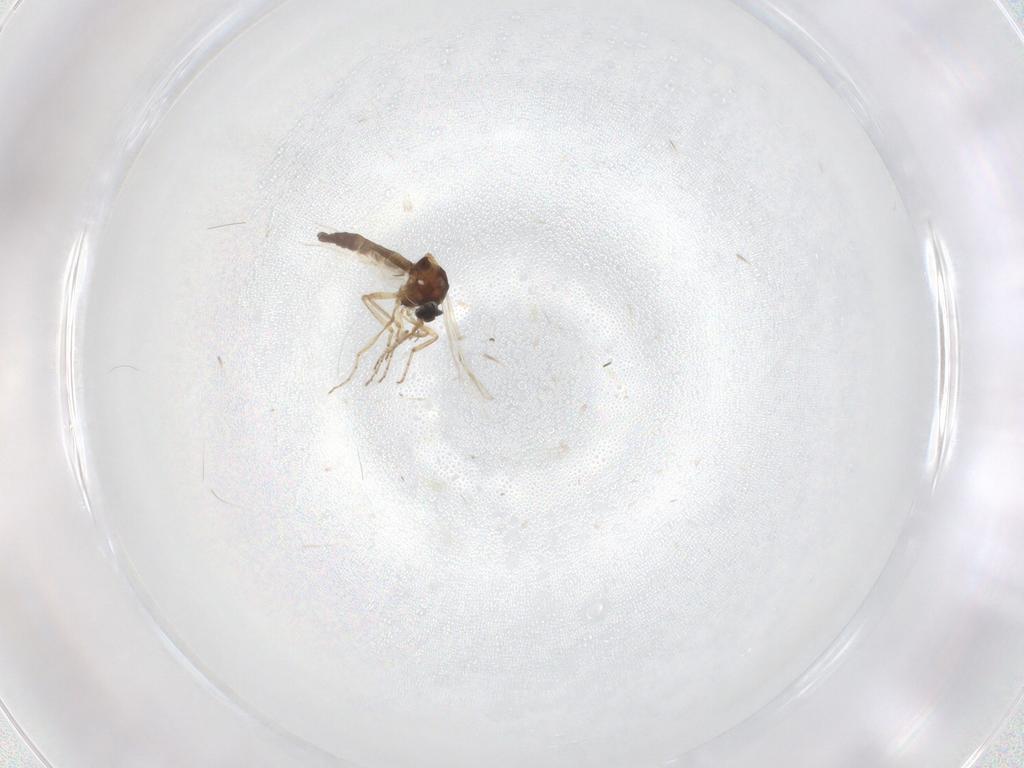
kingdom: Animalia
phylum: Arthropoda
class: Insecta
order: Diptera
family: Ceratopogonidae
